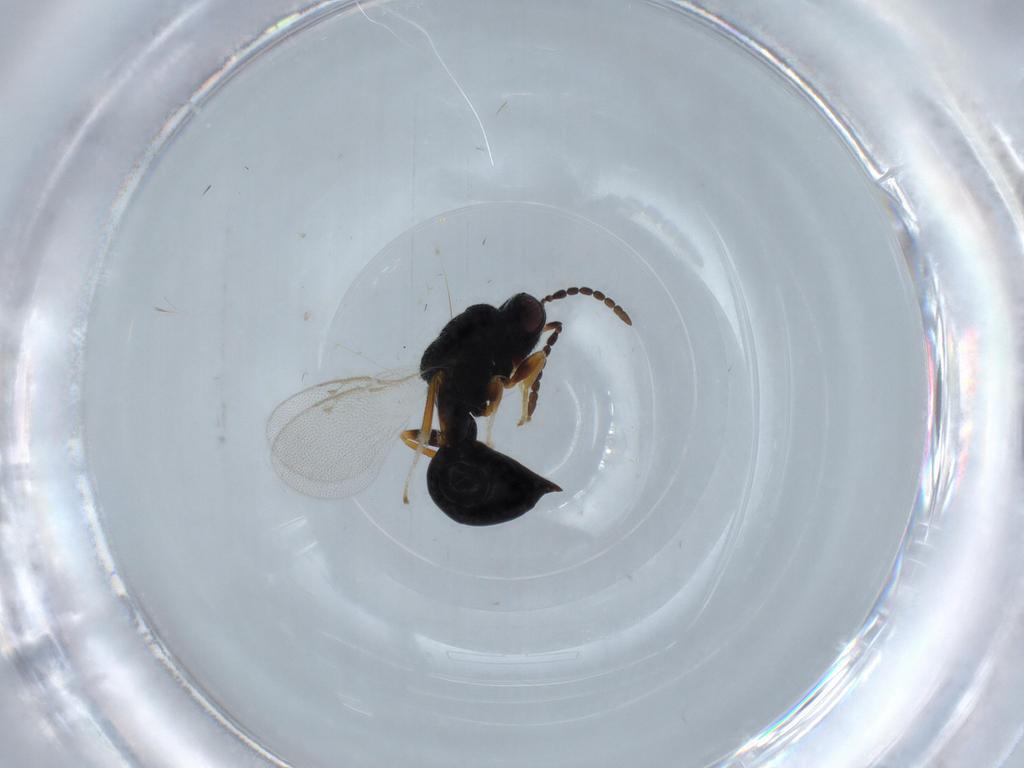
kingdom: Animalia
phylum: Arthropoda
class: Insecta
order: Hymenoptera
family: Eurytomidae
